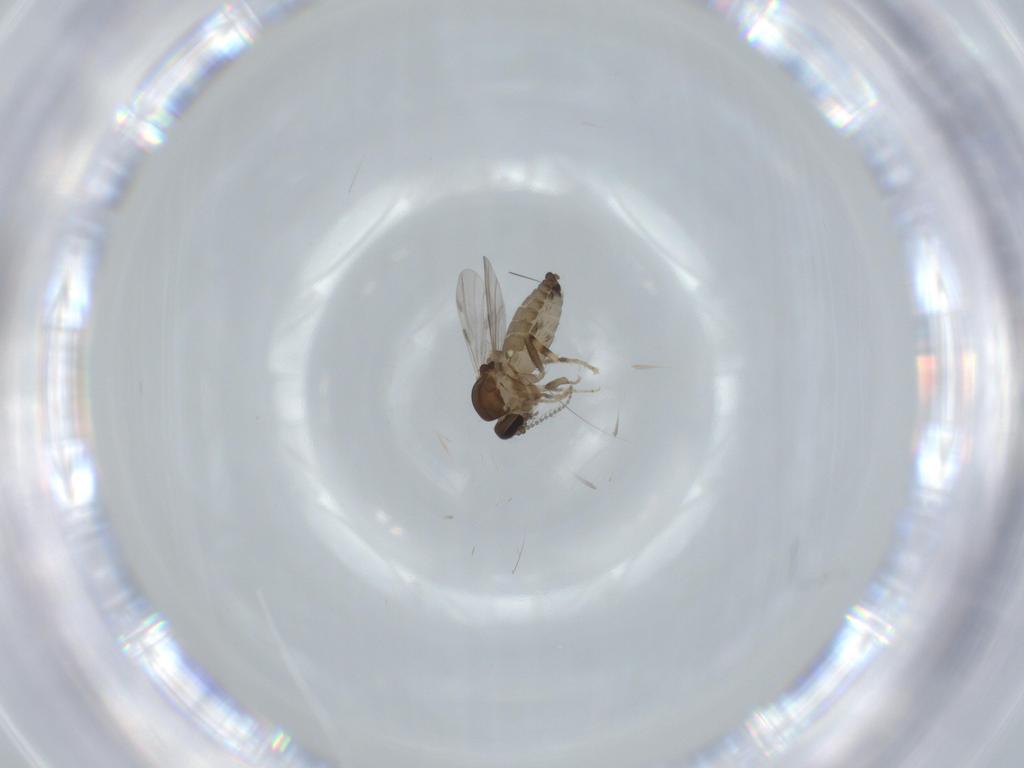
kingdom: Animalia
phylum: Arthropoda
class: Insecta
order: Diptera
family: Ceratopogonidae
